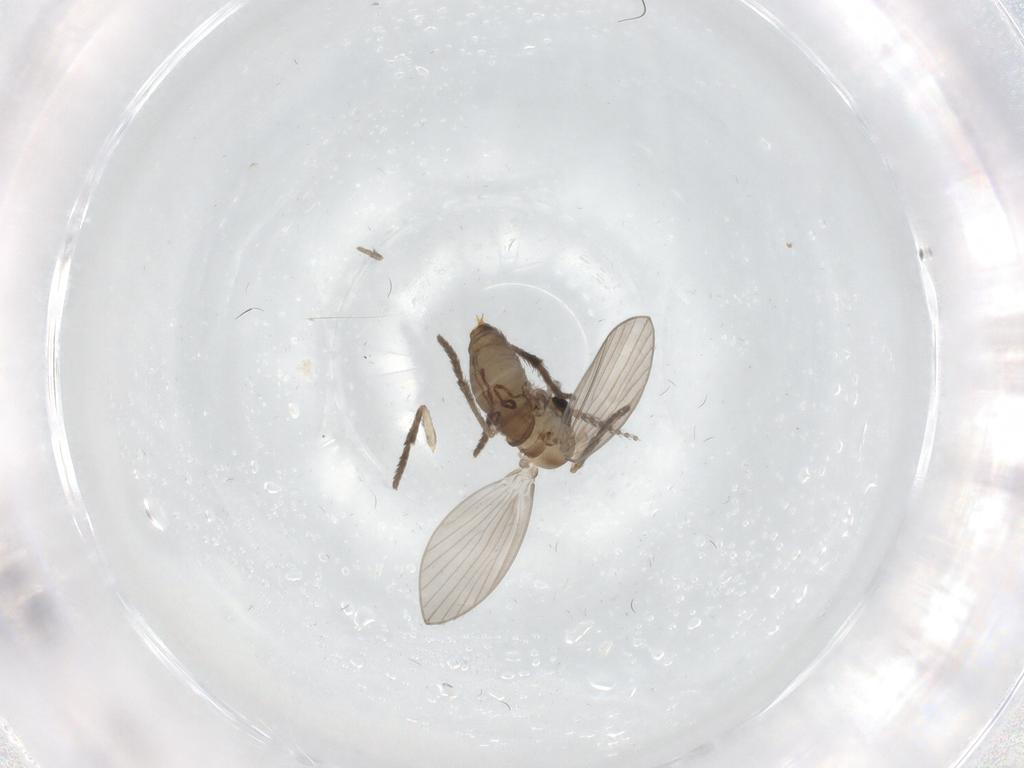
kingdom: Animalia
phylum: Arthropoda
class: Insecta
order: Diptera
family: Psychodidae
